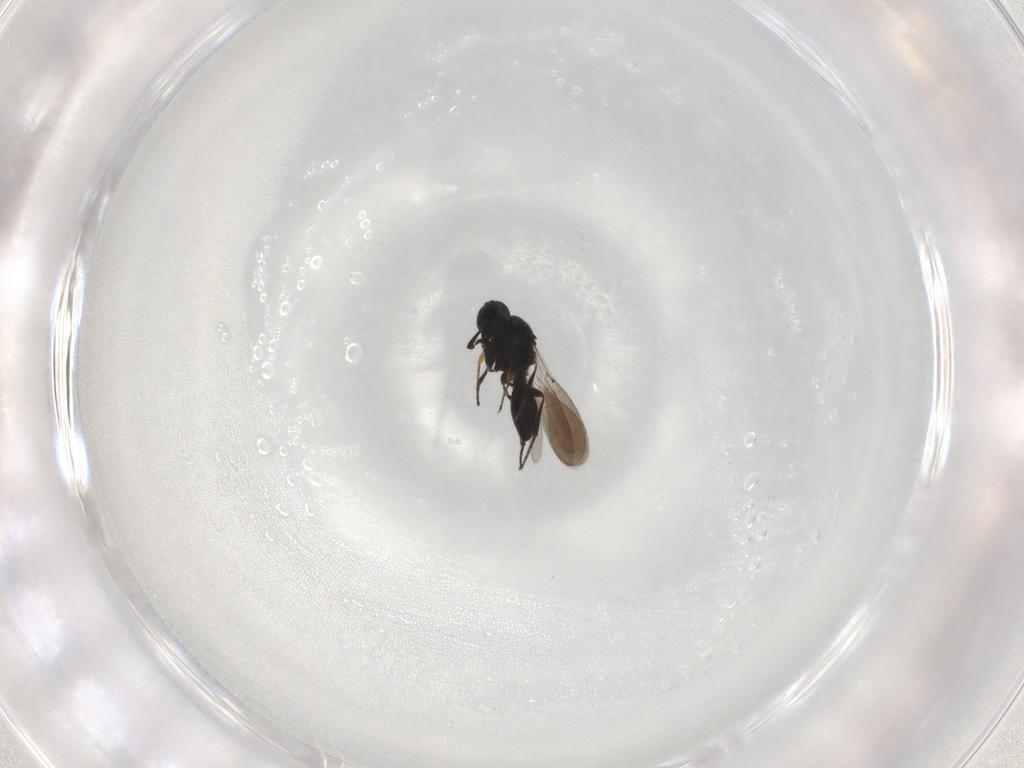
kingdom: Animalia
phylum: Arthropoda
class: Insecta
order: Hymenoptera
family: Platygastridae
